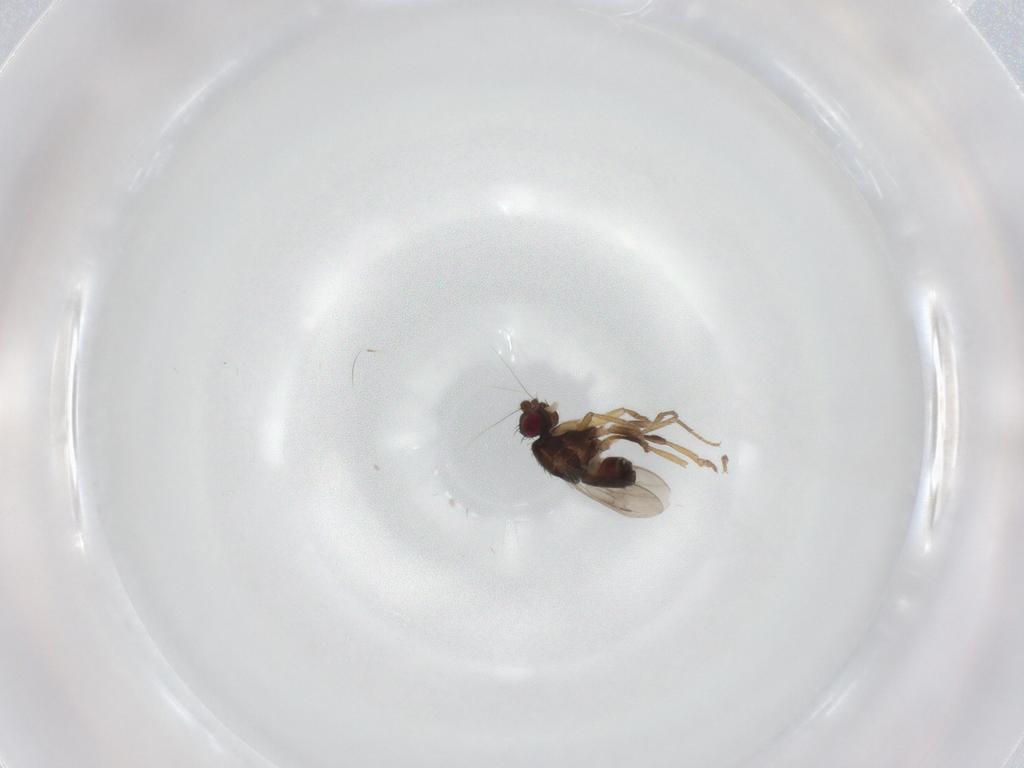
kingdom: Animalia
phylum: Arthropoda
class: Insecta
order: Diptera
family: Sphaeroceridae
